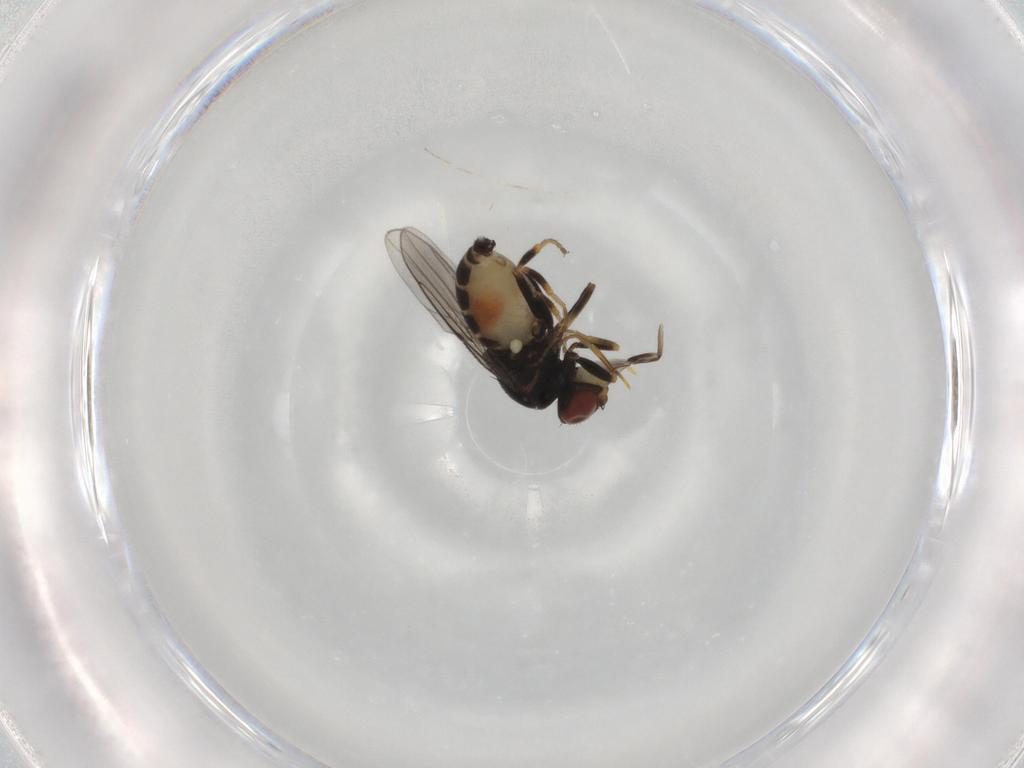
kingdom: Animalia
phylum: Arthropoda
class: Insecta
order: Diptera
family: Chloropidae
